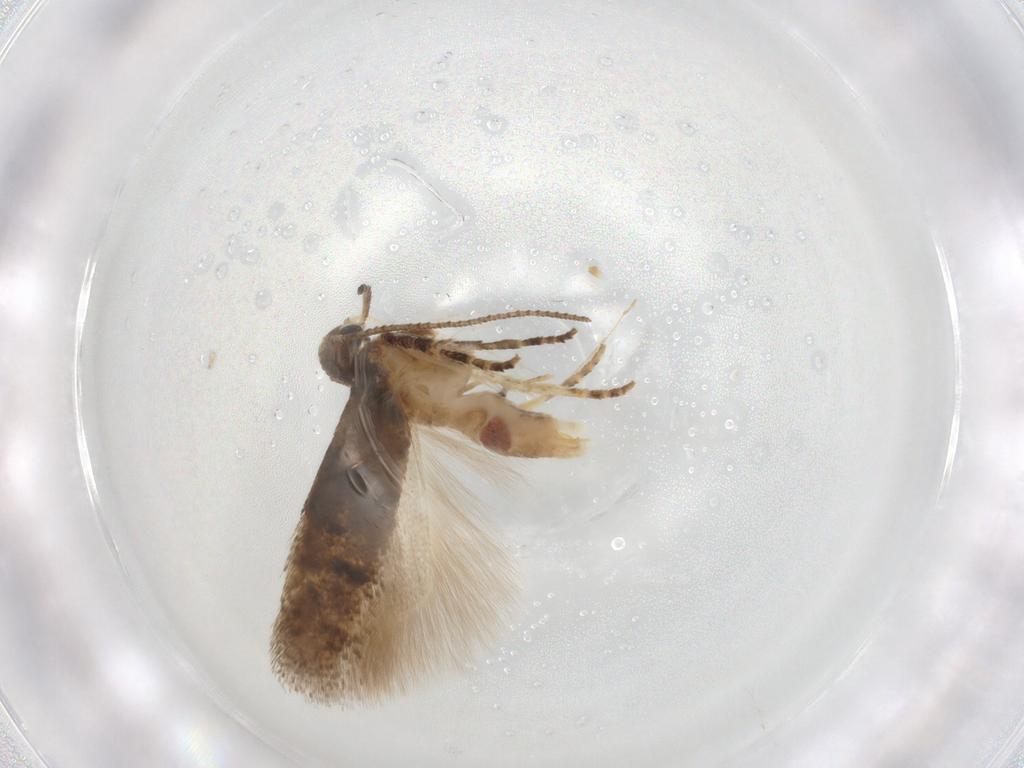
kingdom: Animalia
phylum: Arthropoda
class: Insecta
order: Lepidoptera
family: Gelechiidae
